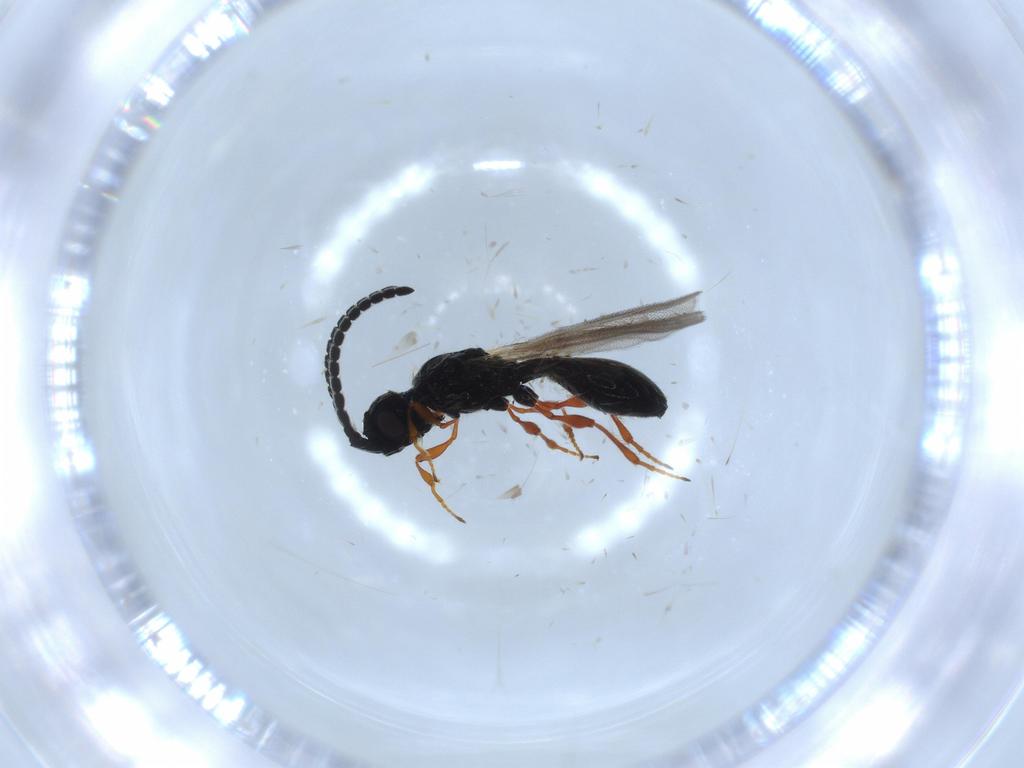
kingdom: Animalia
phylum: Arthropoda
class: Insecta
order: Hymenoptera
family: Diapriidae
